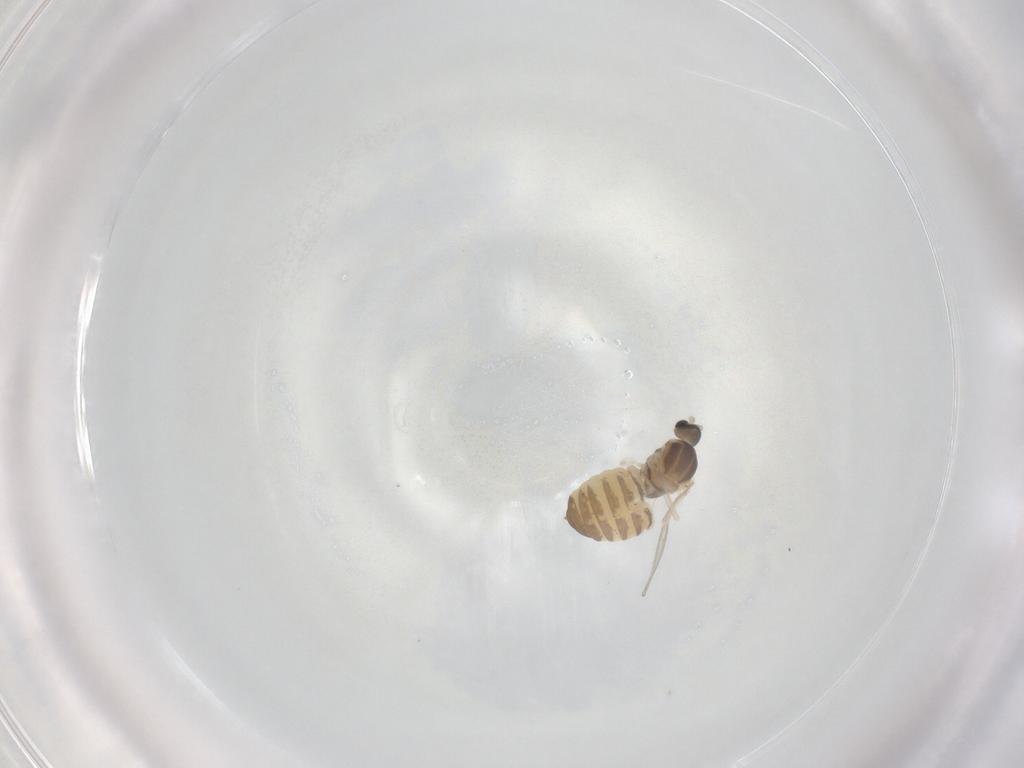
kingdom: Animalia
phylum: Arthropoda
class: Insecta
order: Diptera
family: Cecidomyiidae
